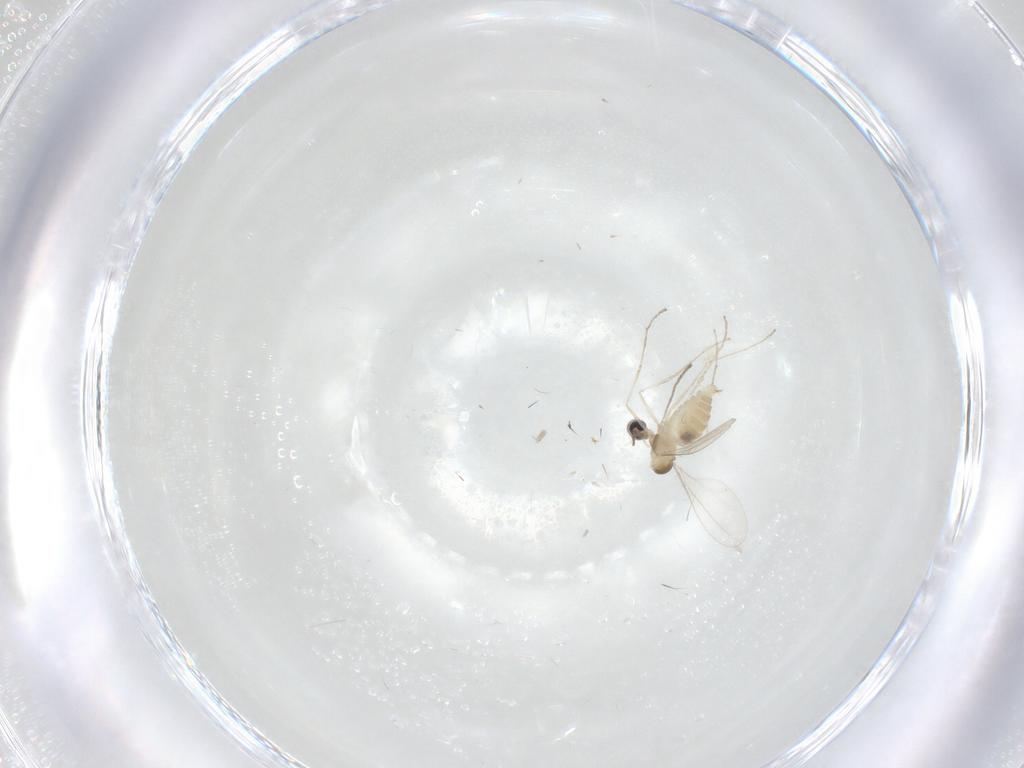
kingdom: Animalia
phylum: Arthropoda
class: Insecta
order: Diptera
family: Cecidomyiidae
